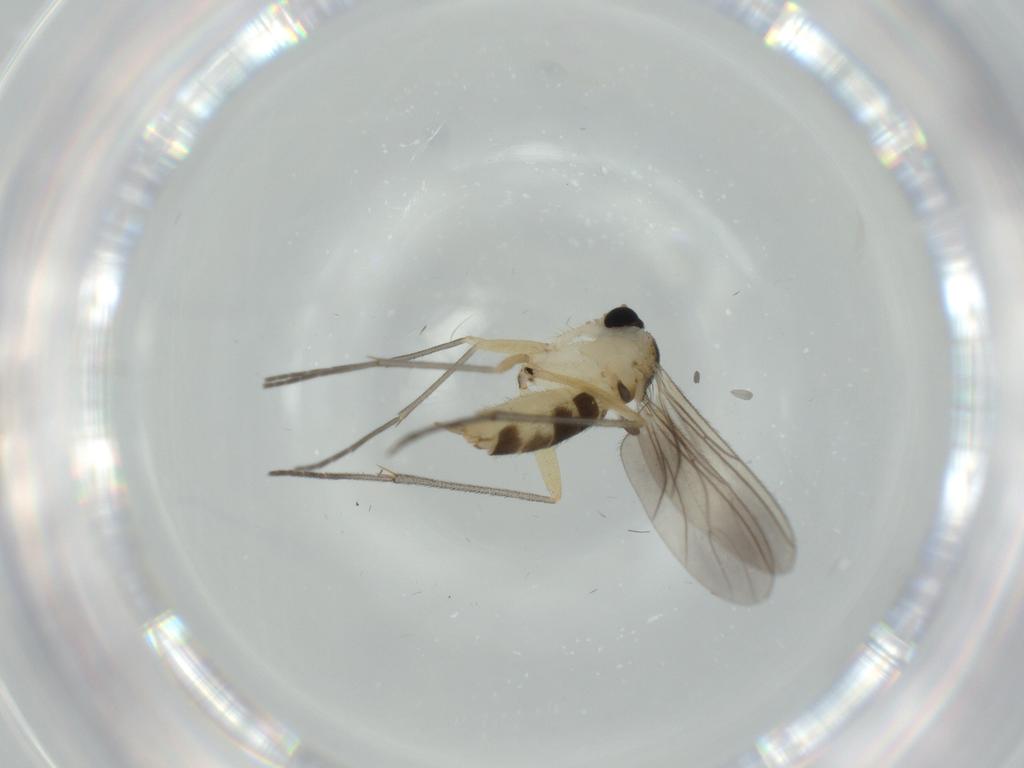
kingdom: Animalia
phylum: Arthropoda
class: Insecta
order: Diptera
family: Sciaridae
